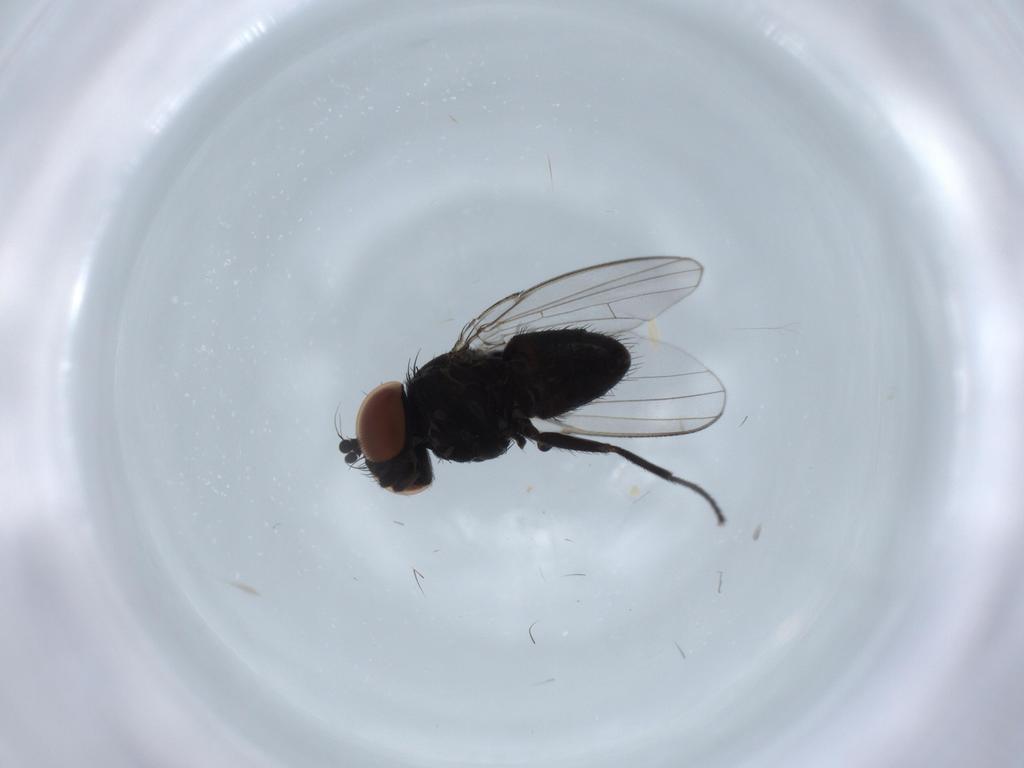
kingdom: Animalia
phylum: Arthropoda
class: Insecta
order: Diptera
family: Milichiidae
